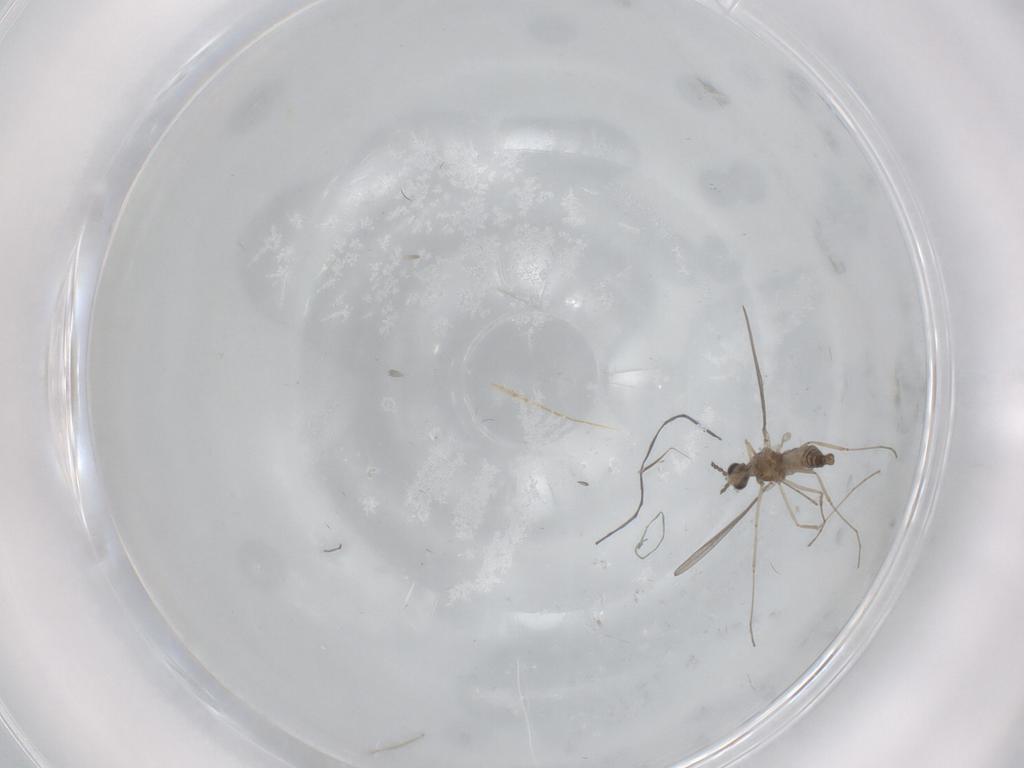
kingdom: Animalia
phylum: Arthropoda
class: Insecta
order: Diptera
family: Cecidomyiidae
